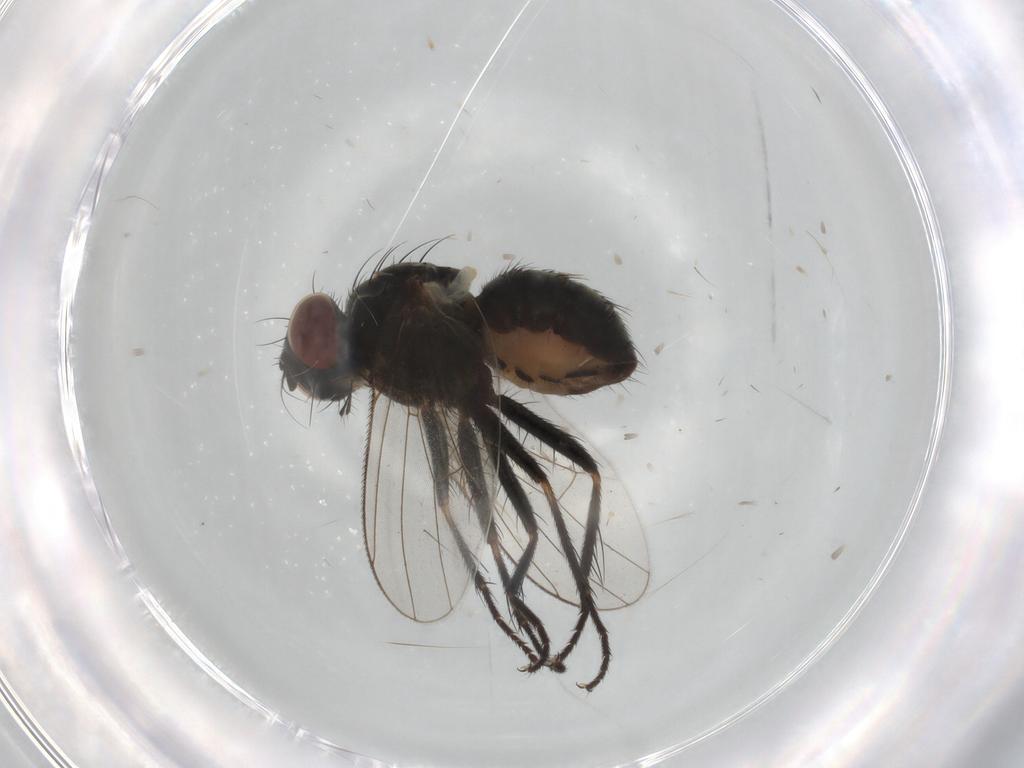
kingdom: Animalia
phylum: Arthropoda
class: Insecta
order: Diptera
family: Muscidae
